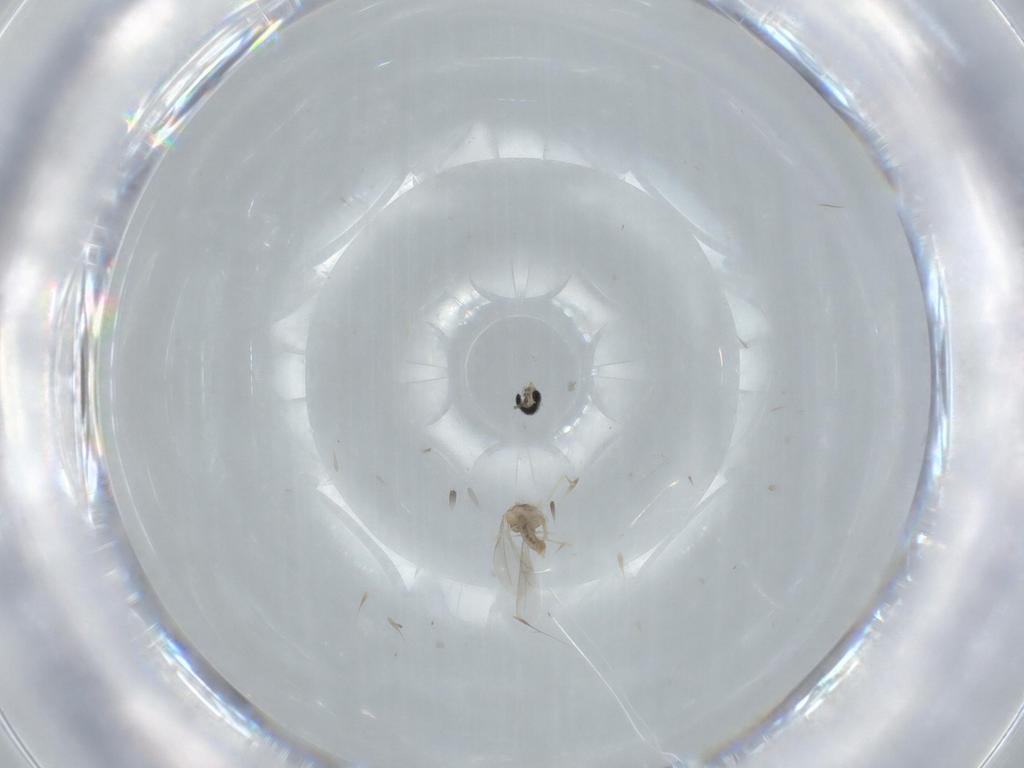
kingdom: Animalia
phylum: Arthropoda
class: Insecta
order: Diptera
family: Cecidomyiidae
